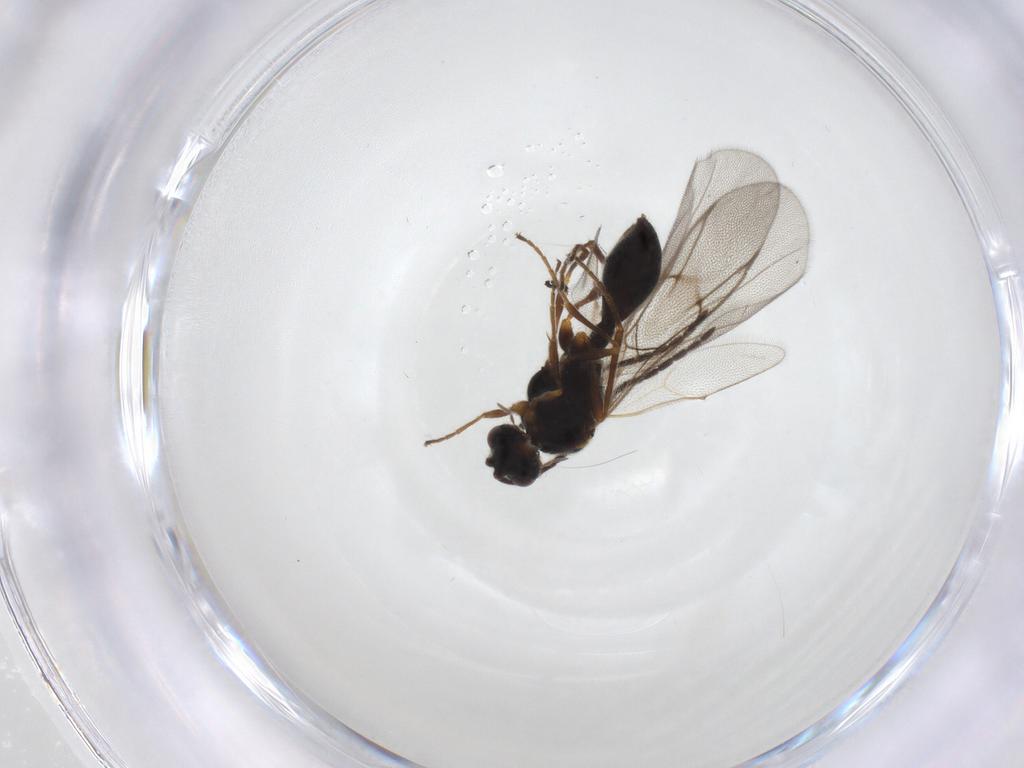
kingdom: Animalia
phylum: Arthropoda
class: Insecta
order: Hymenoptera
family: Diapriidae
